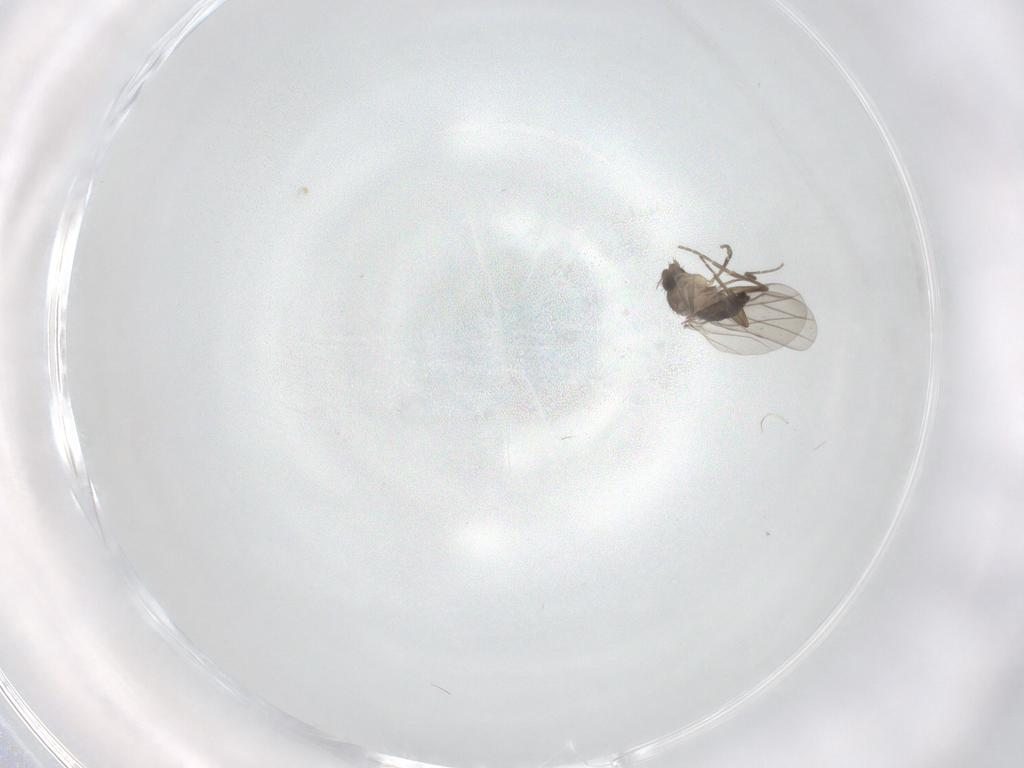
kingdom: Animalia
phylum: Arthropoda
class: Insecta
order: Diptera
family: Phoridae
